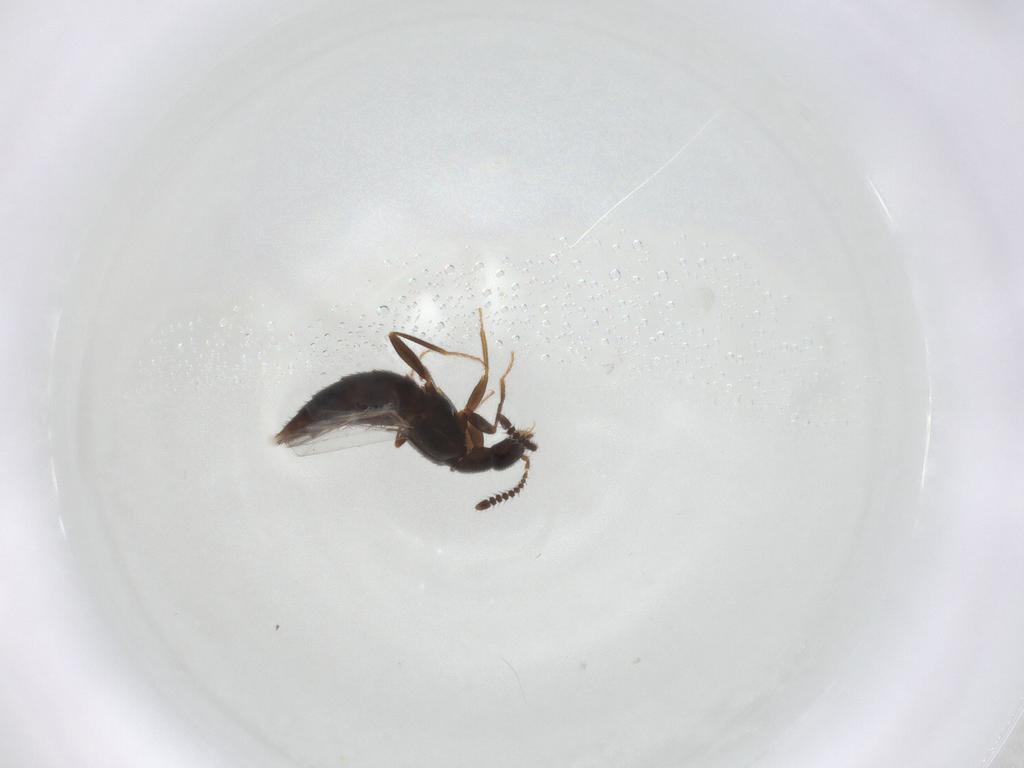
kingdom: Animalia
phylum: Arthropoda
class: Insecta
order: Coleoptera
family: Staphylinidae
